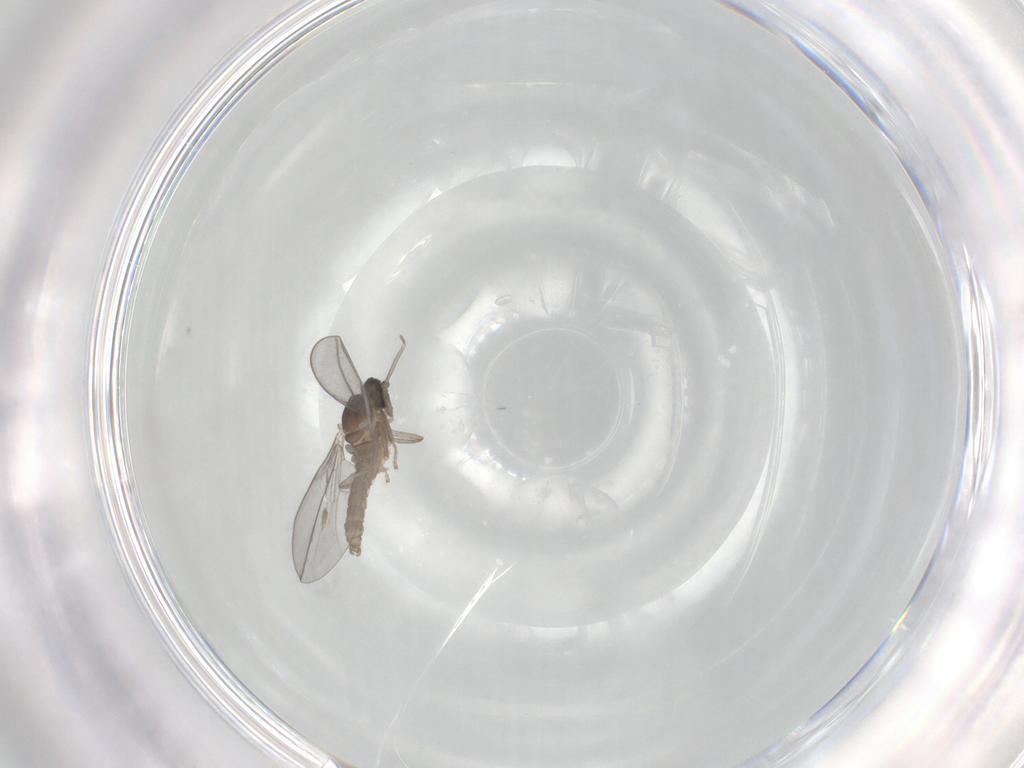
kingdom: Animalia
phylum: Arthropoda
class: Insecta
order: Diptera
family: Cecidomyiidae
